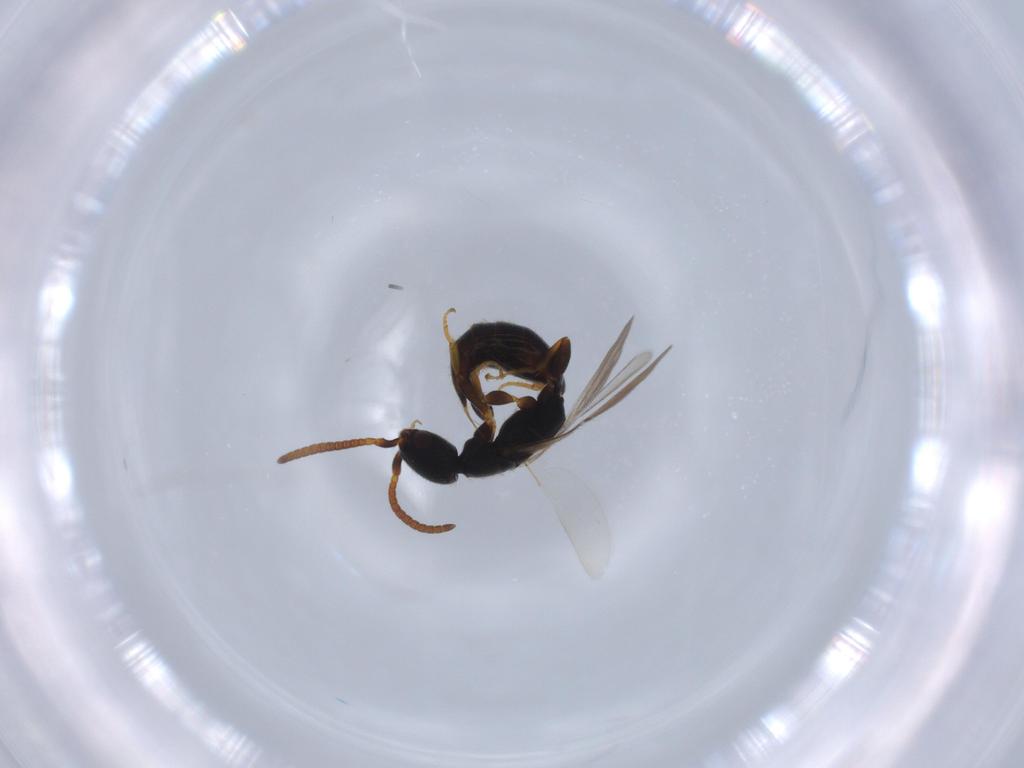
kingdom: Animalia
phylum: Arthropoda
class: Insecta
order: Hymenoptera
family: Bethylidae
